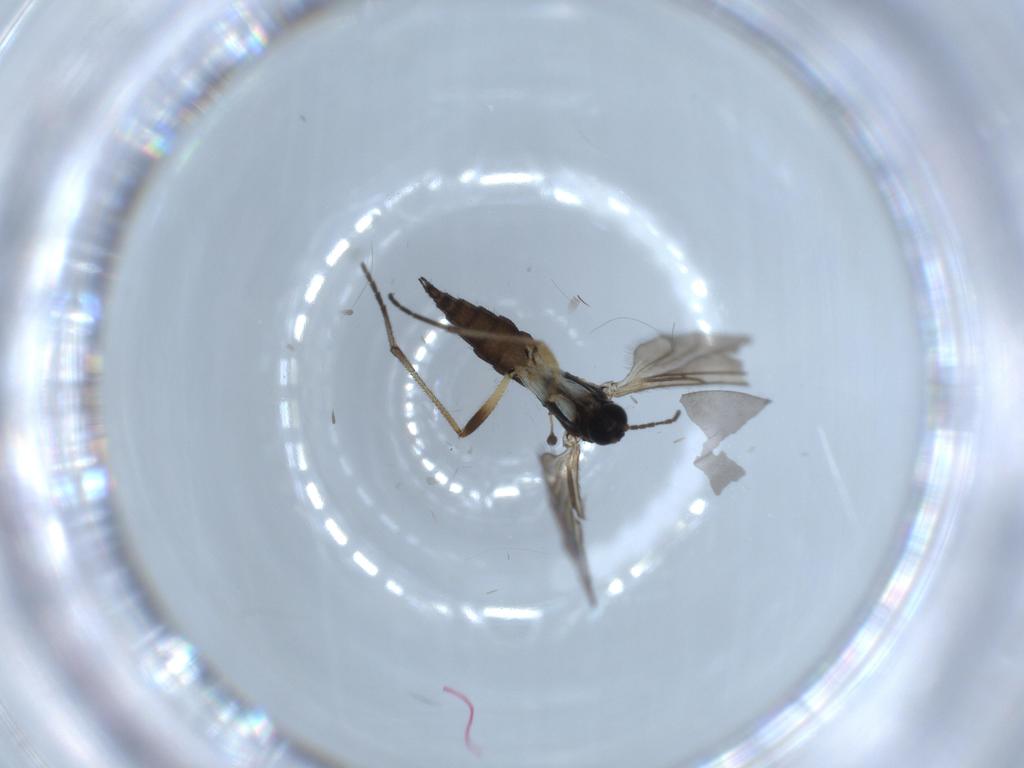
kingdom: Animalia
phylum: Arthropoda
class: Insecta
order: Diptera
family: Sciaridae
